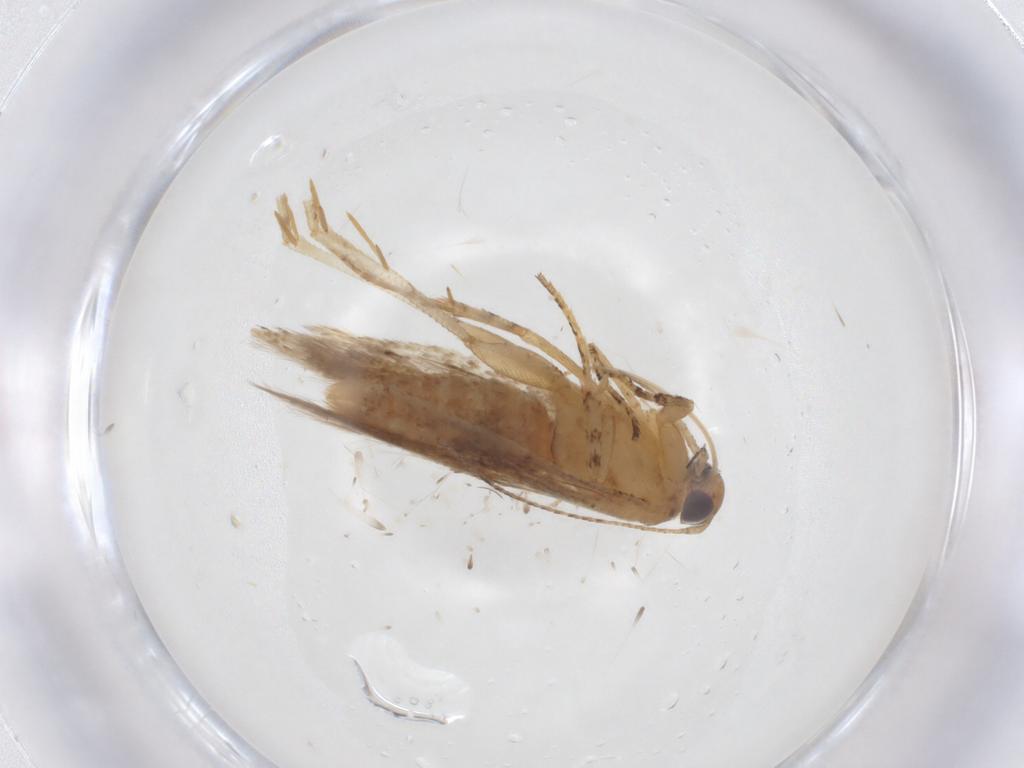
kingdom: Animalia
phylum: Arthropoda
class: Insecta
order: Lepidoptera
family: Gelechiidae
